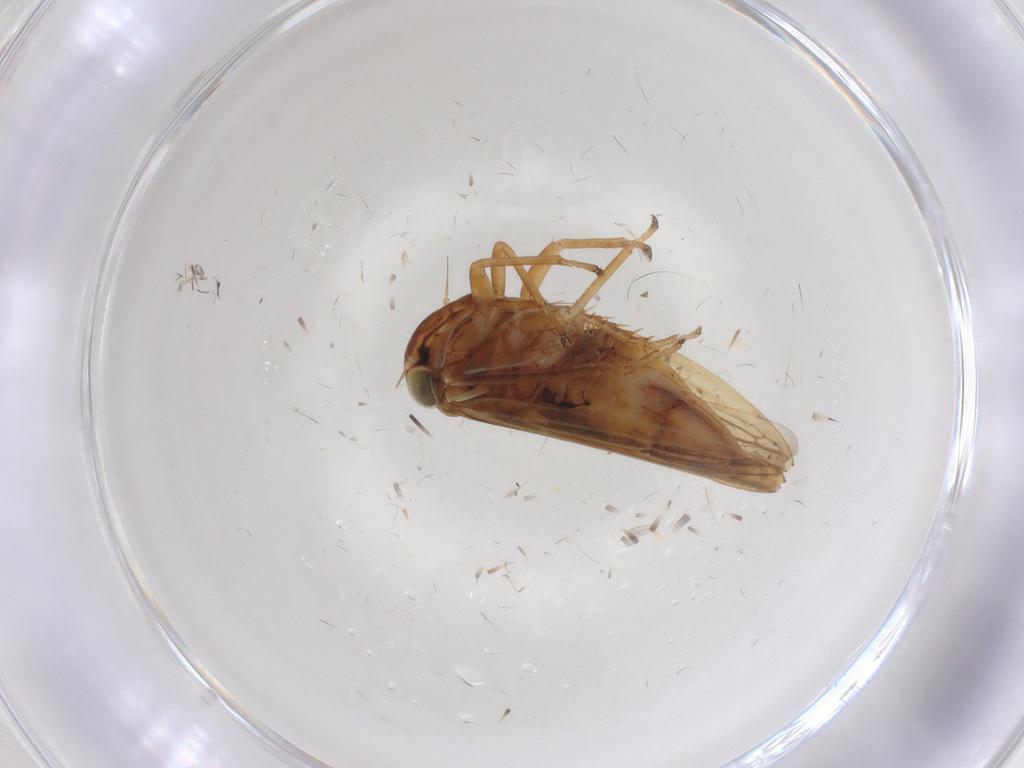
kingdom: Animalia
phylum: Arthropoda
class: Insecta
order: Hemiptera
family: Cicadellidae
